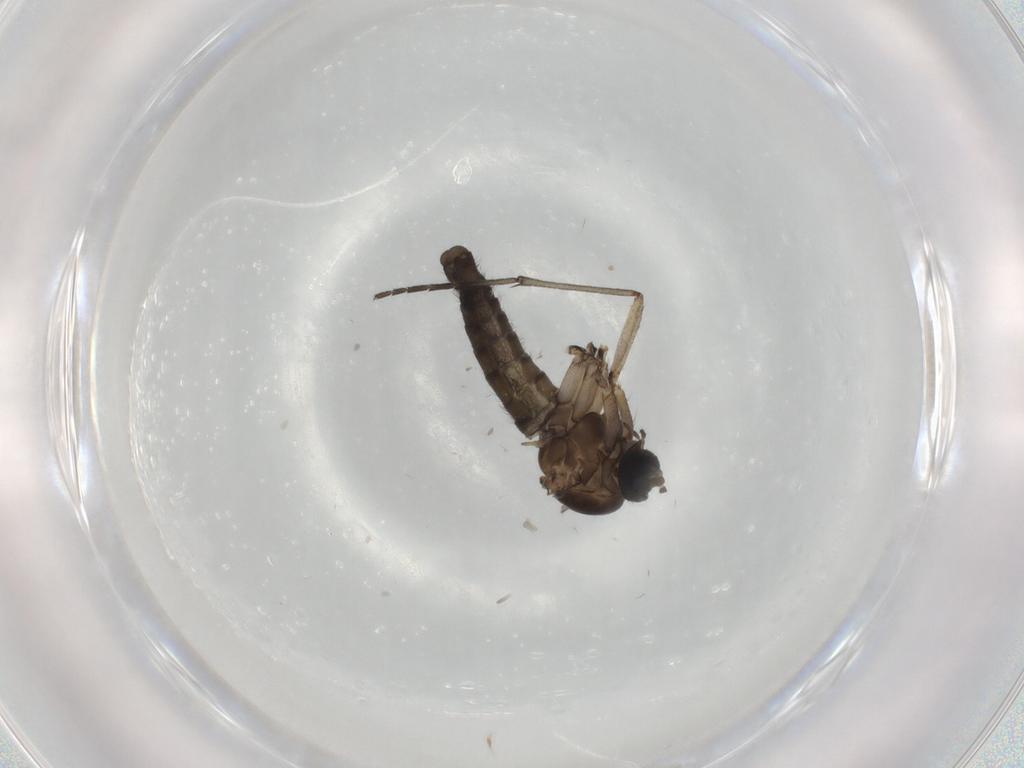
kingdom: Animalia
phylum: Arthropoda
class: Insecta
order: Diptera
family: Sciaridae
